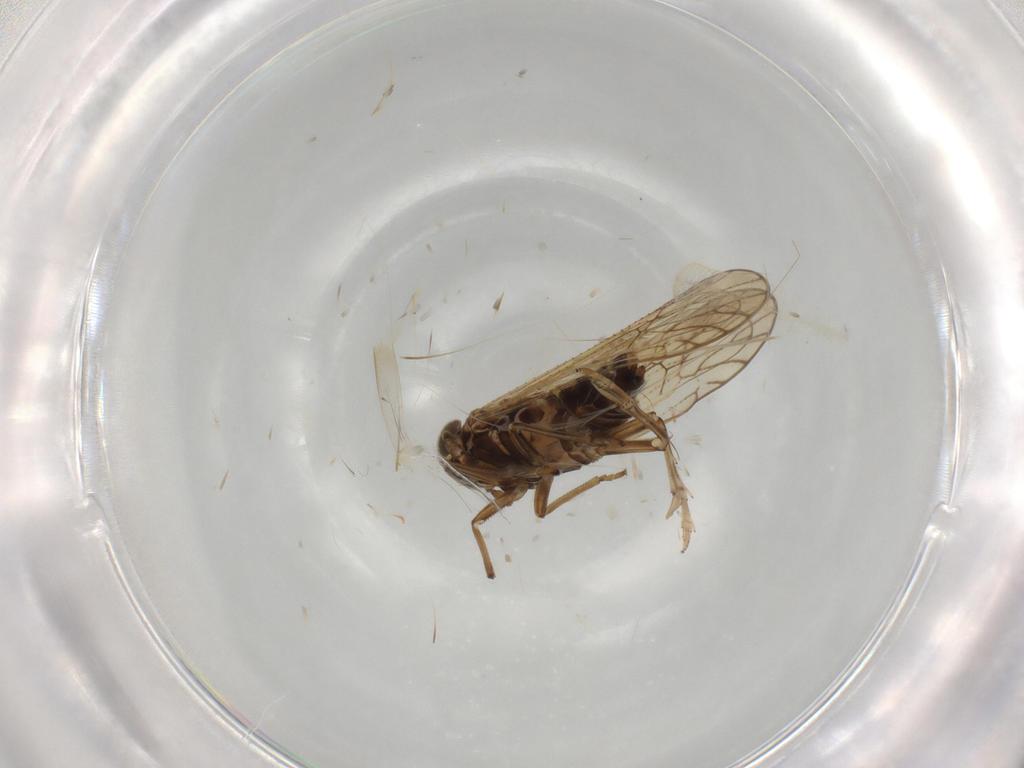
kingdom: Animalia
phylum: Arthropoda
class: Insecta
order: Hemiptera
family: Delphacidae
